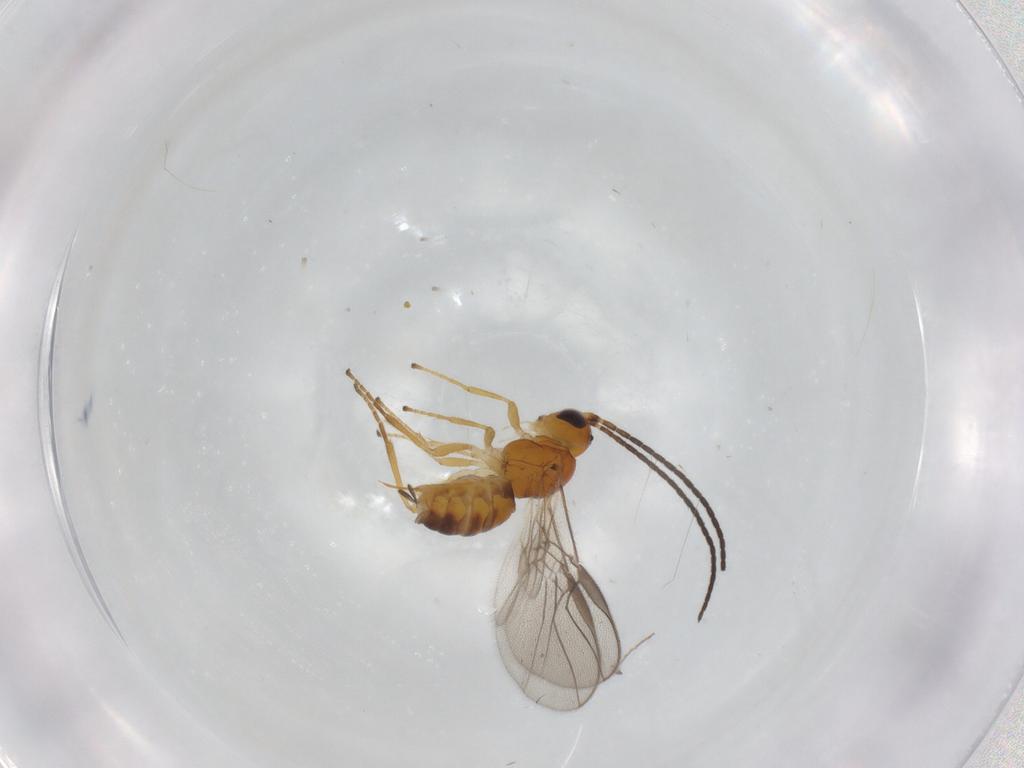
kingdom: Animalia
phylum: Arthropoda
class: Insecta
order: Hymenoptera
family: Braconidae
